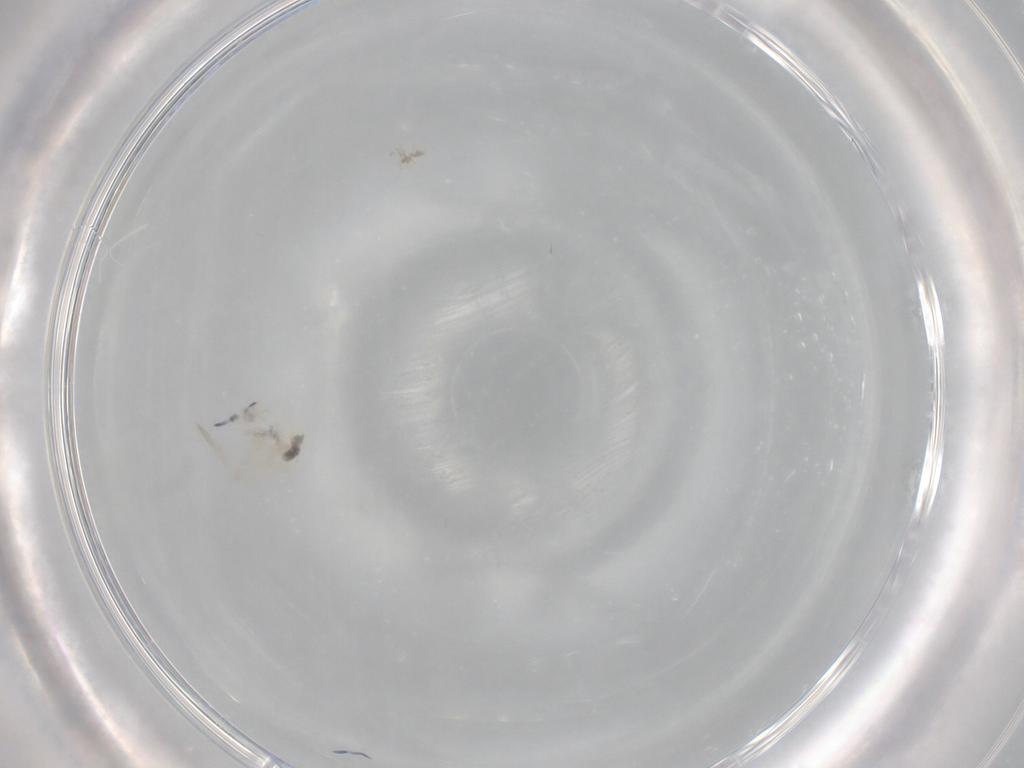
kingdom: Animalia
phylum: Arthropoda
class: Collembola
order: Entomobryomorpha
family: Entomobryidae
